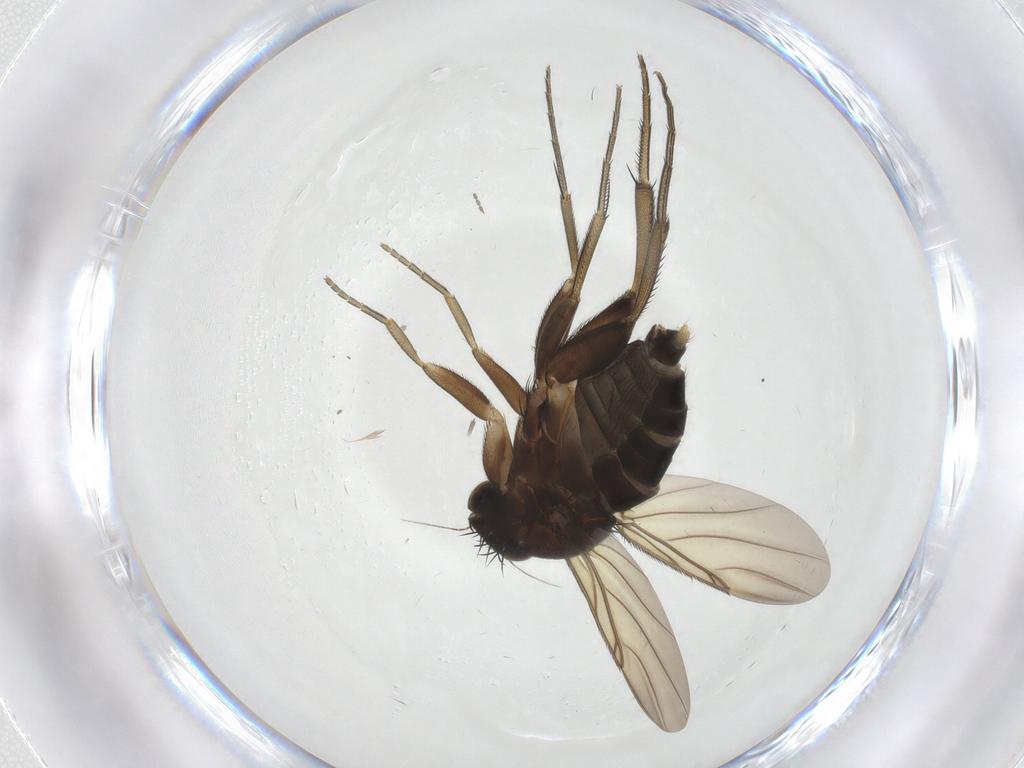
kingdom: Animalia
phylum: Arthropoda
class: Insecta
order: Diptera
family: Phoridae
